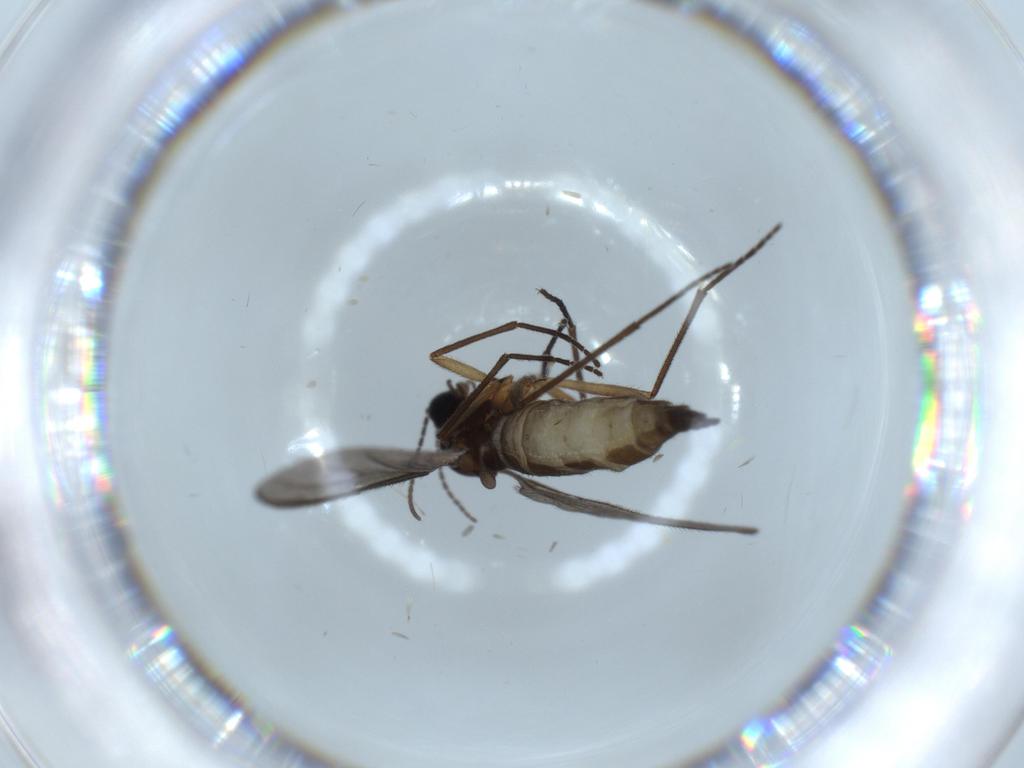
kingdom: Animalia
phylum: Arthropoda
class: Insecta
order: Diptera
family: Sciaridae
